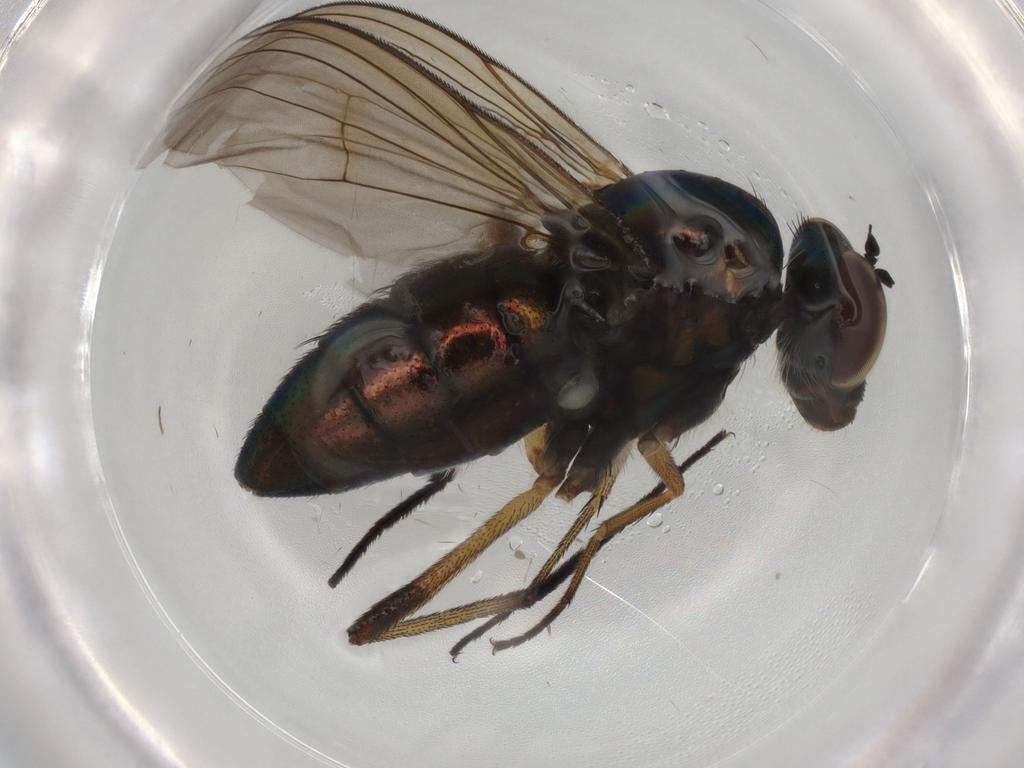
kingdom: Animalia
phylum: Arthropoda
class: Insecta
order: Diptera
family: Dolichopodidae
